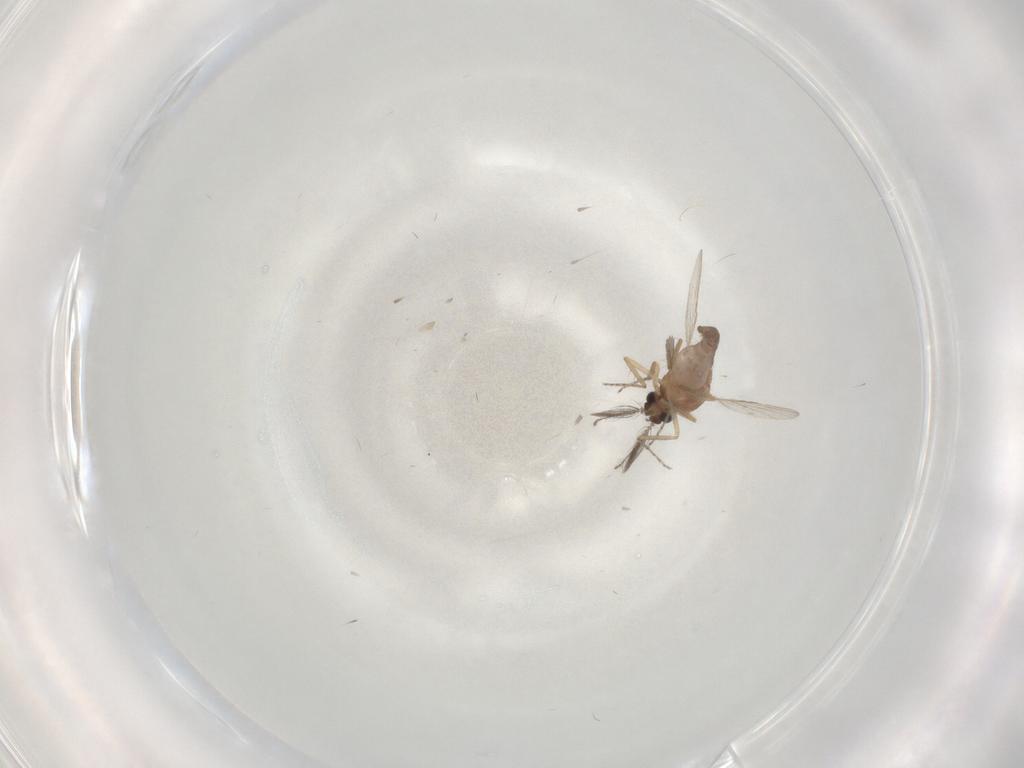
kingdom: Animalia
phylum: Arthropoda
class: Insecta
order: Diptera
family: Ceratopogonidae
